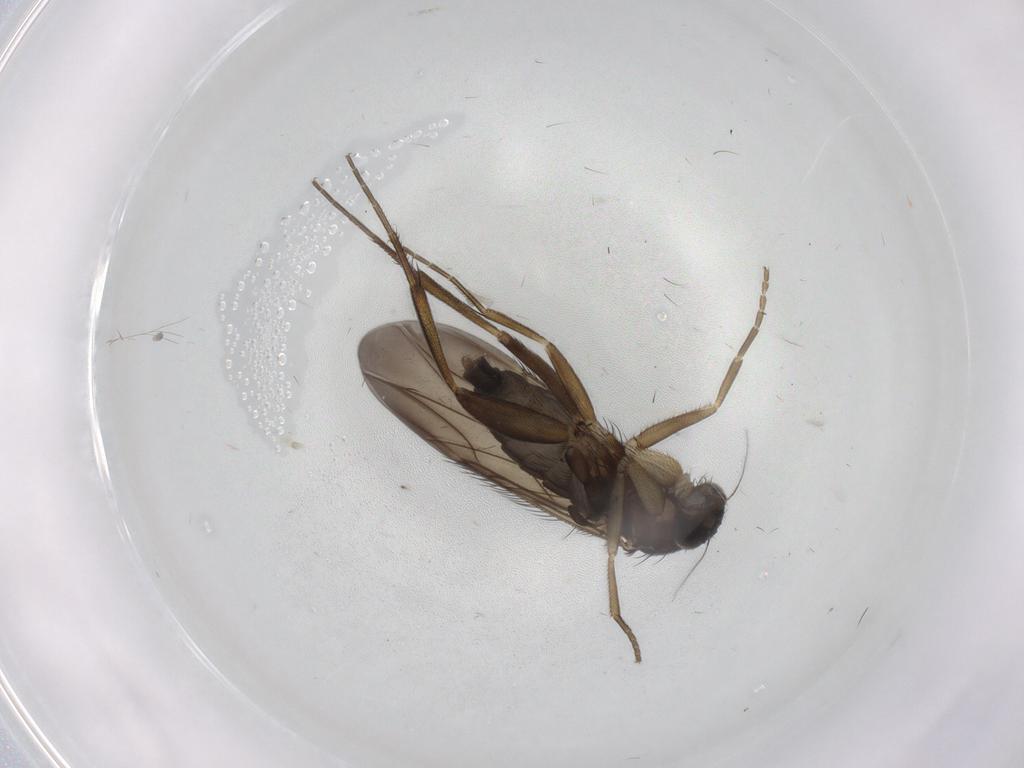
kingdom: Animalia
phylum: Arthropoda
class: Insecta
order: Diptera
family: Phoridae
